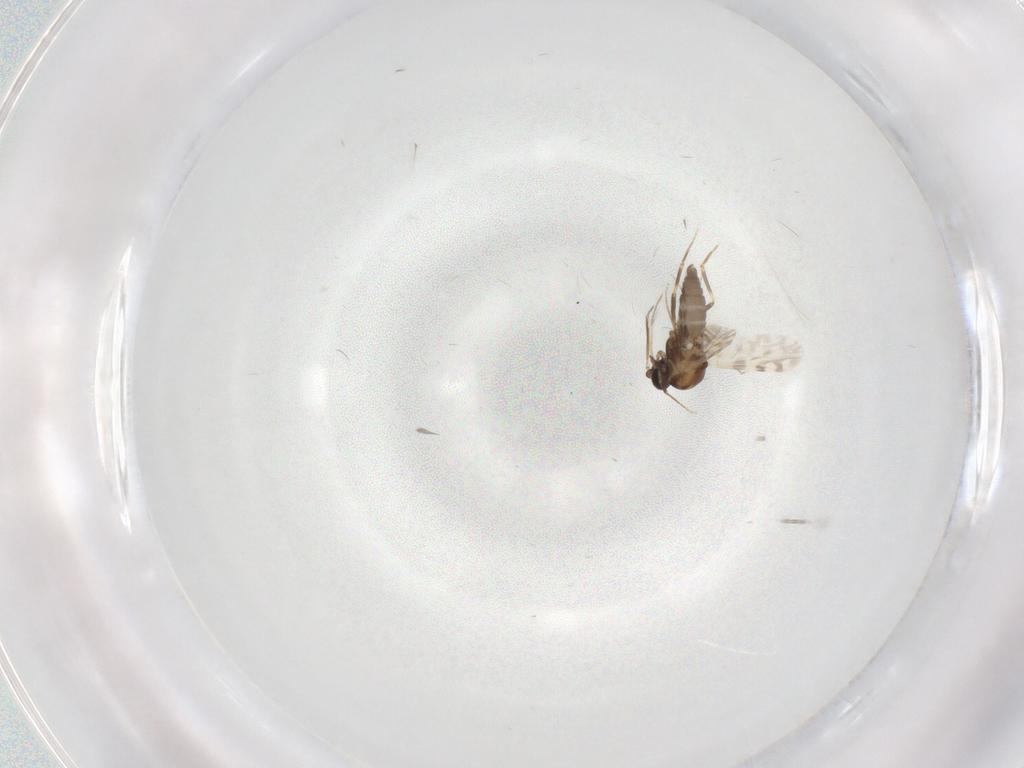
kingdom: Animalia
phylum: Arthropoda
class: Insecta
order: Diptera
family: Ceratopogonidae
